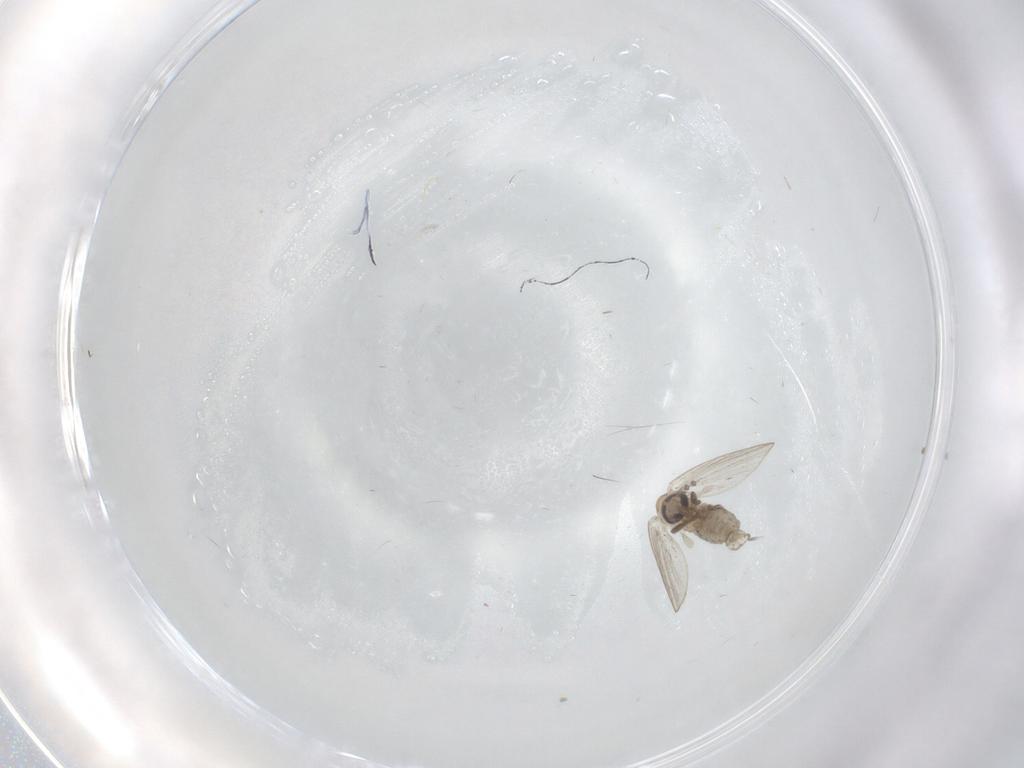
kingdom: Animalia
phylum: Arthropoda
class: Insecta
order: Diptera
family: Psychodidae
